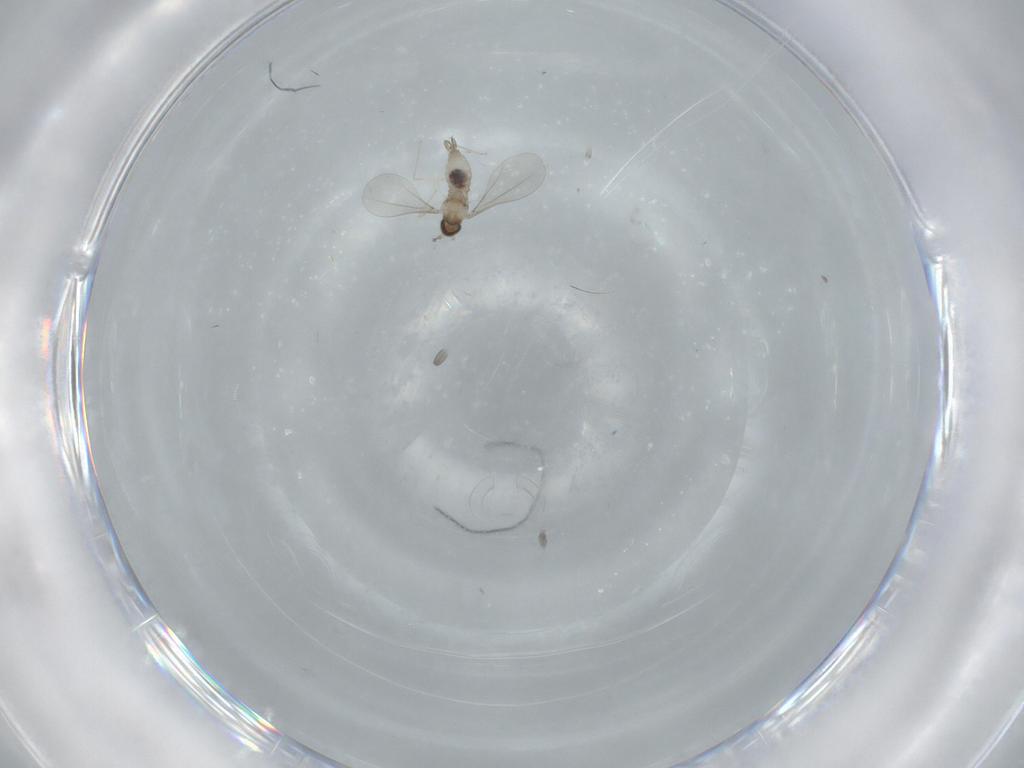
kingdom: Animalia
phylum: Arthropoda
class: Insecta
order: Diptera
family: Cecidomyiidae
